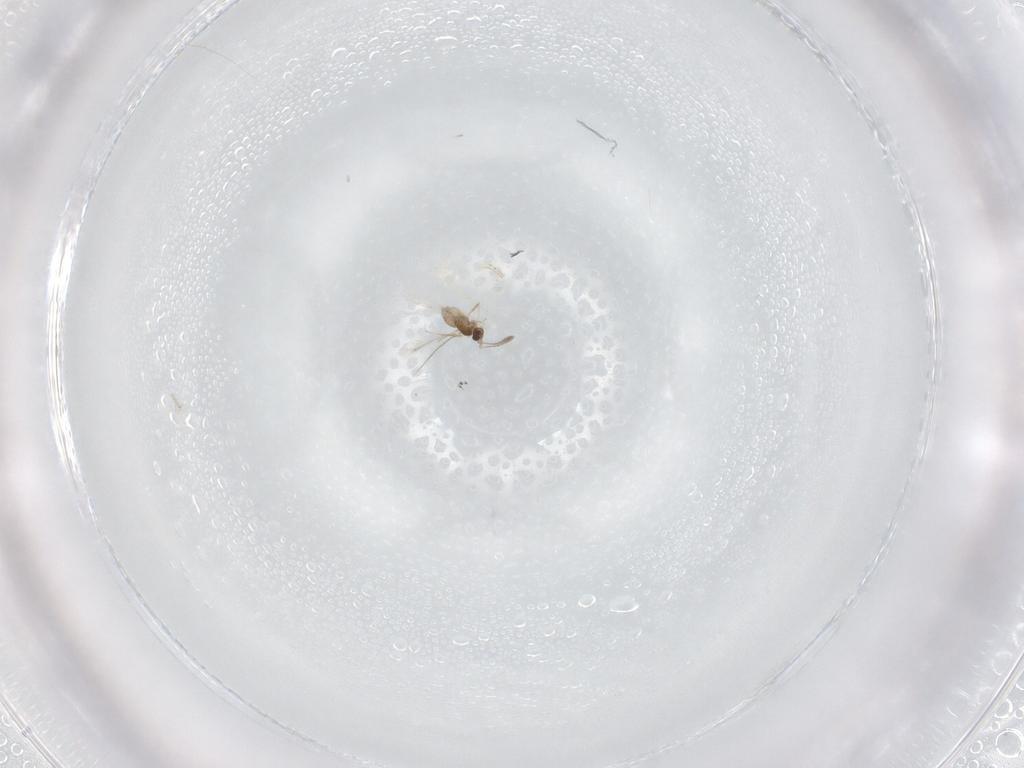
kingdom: Animalia
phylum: Arthropoda
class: Insecta
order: Hymenoptera
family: Mymaridae
